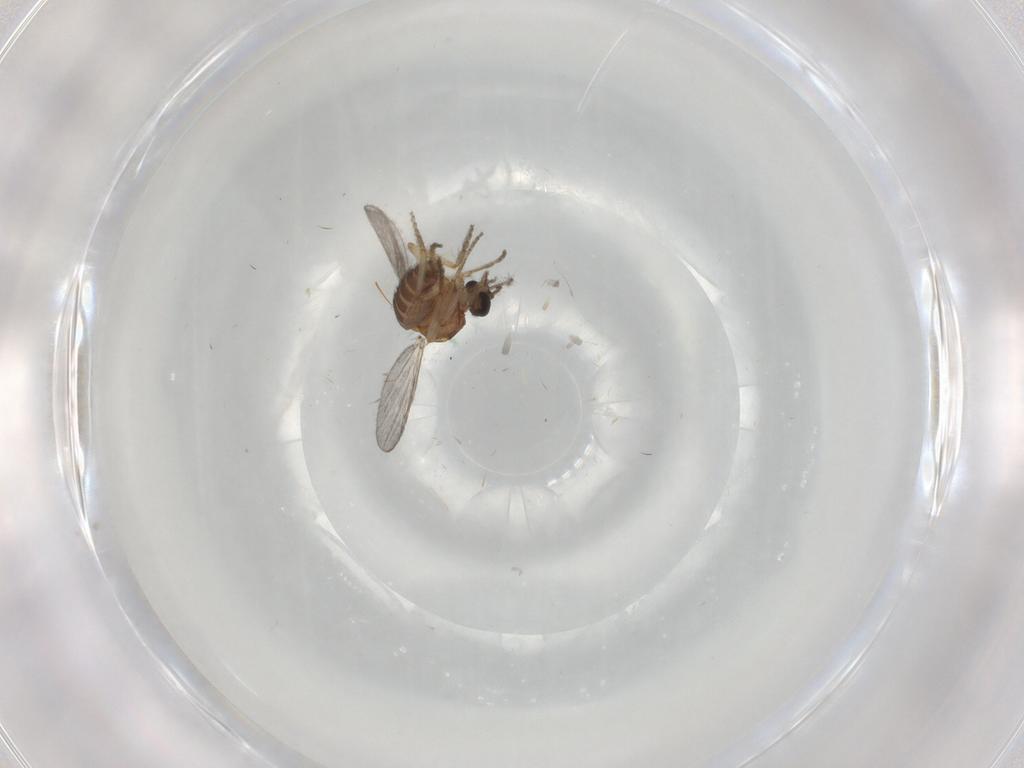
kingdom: Animalia
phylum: Arthropoda
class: Insecta
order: Diptera
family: Ceratopogonidae
